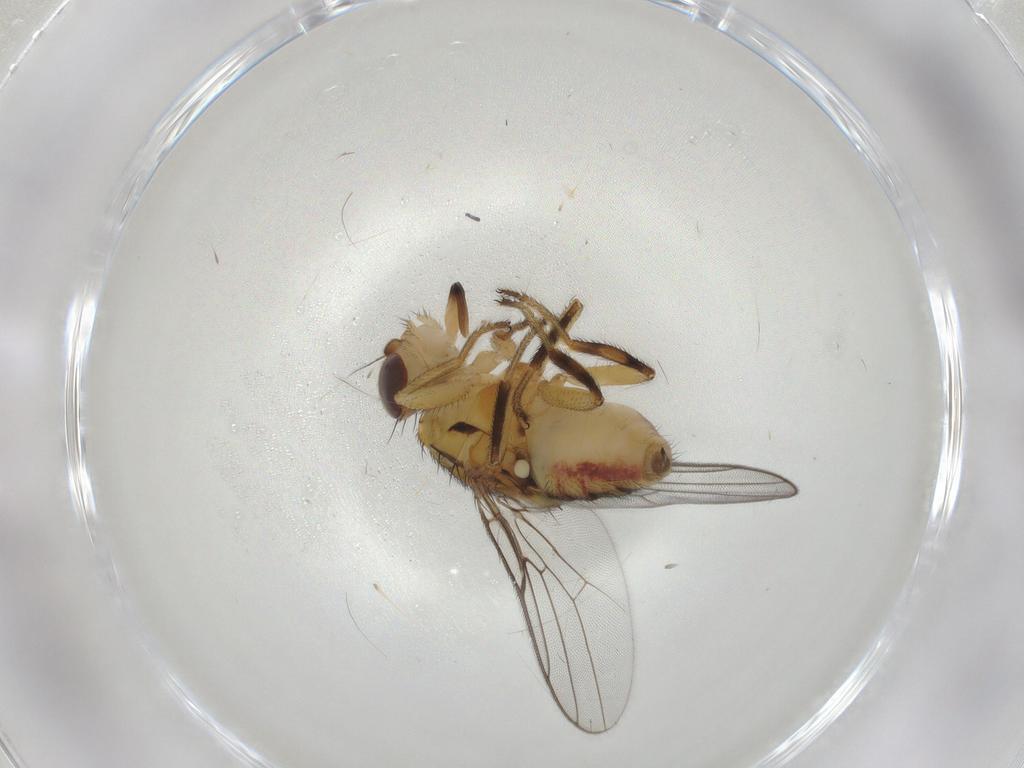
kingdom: Animalia
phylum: Arthropoda
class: Insecta
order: Diptera
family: Chloropidae
